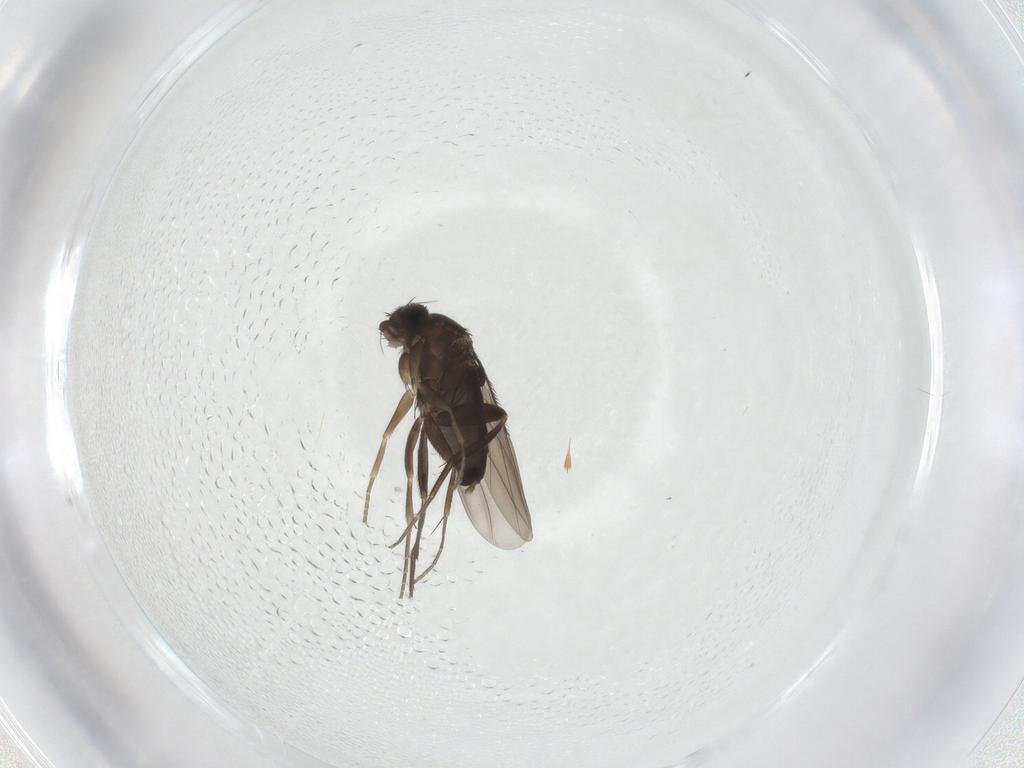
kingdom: Animalia
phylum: Arthropoda
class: Insecta
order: Diptera
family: Phoridae
